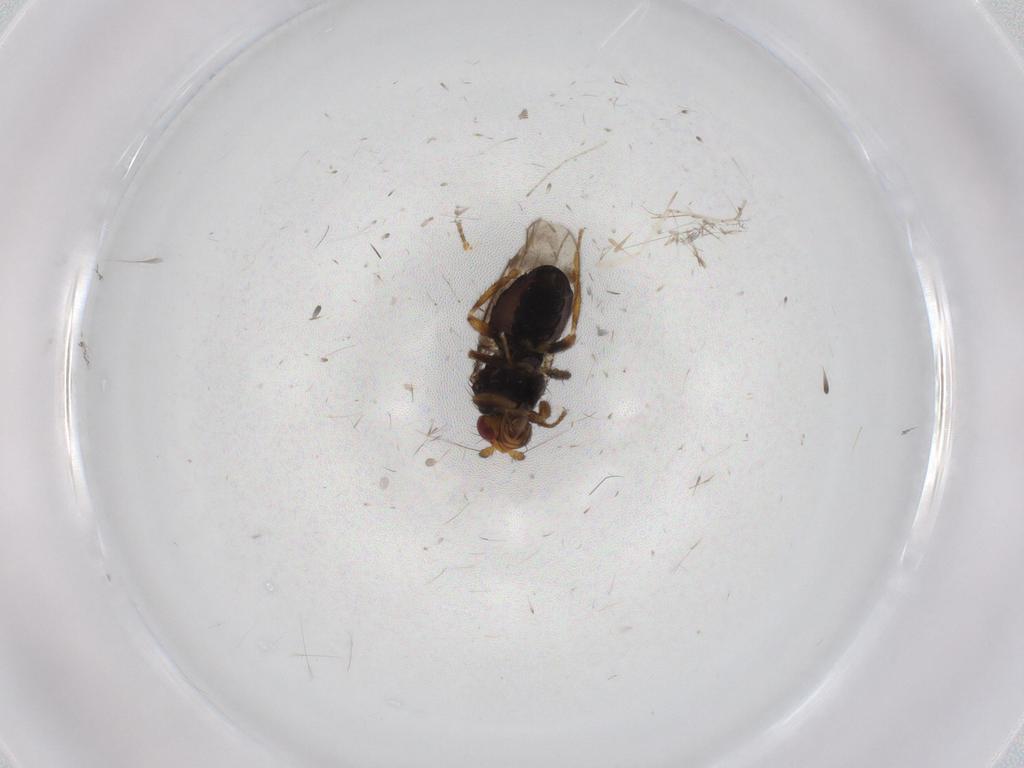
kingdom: Animalia
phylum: Arthropoda
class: Insecta
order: Diptera
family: Sphaeroceridae
